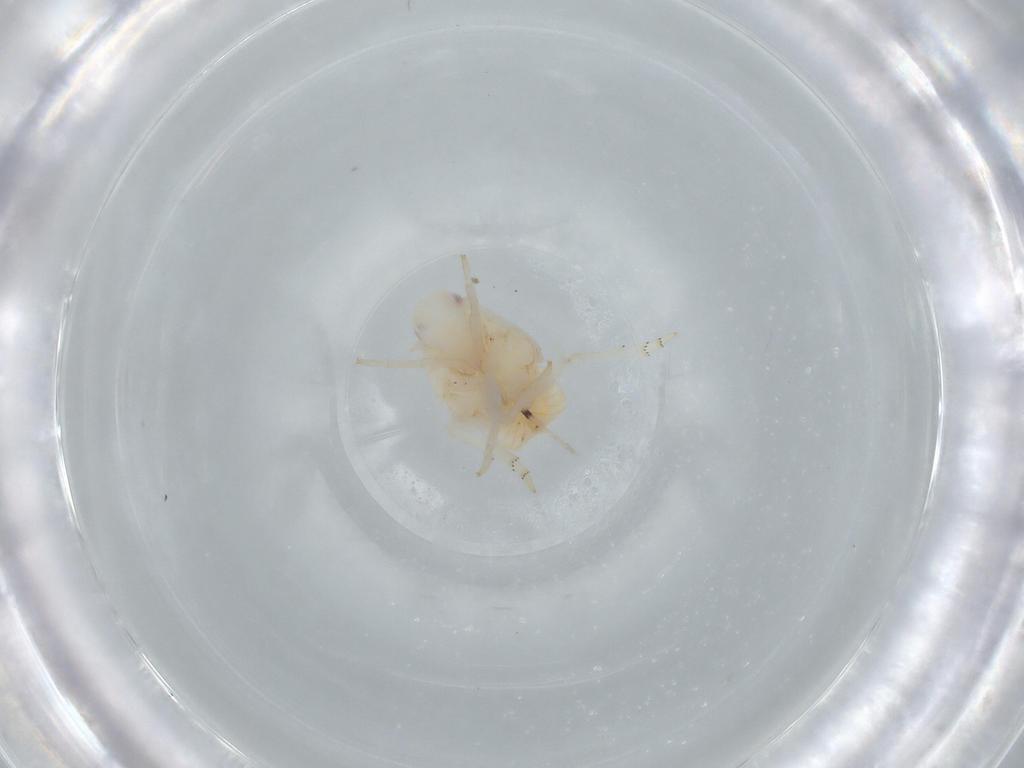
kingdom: Animalia
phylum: Arthropoda
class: Insecta
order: Hemiptera
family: Flatidae
